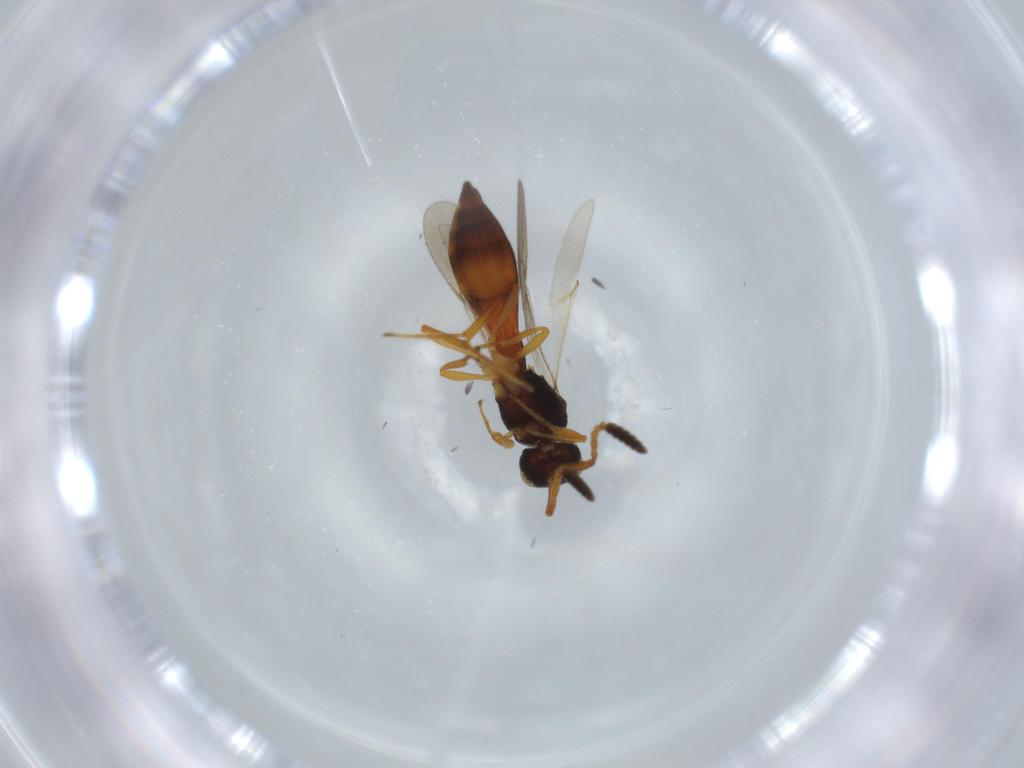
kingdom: Animalia
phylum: Arthropoda
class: Insecta
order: Hymenoptera
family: Scelionidae
